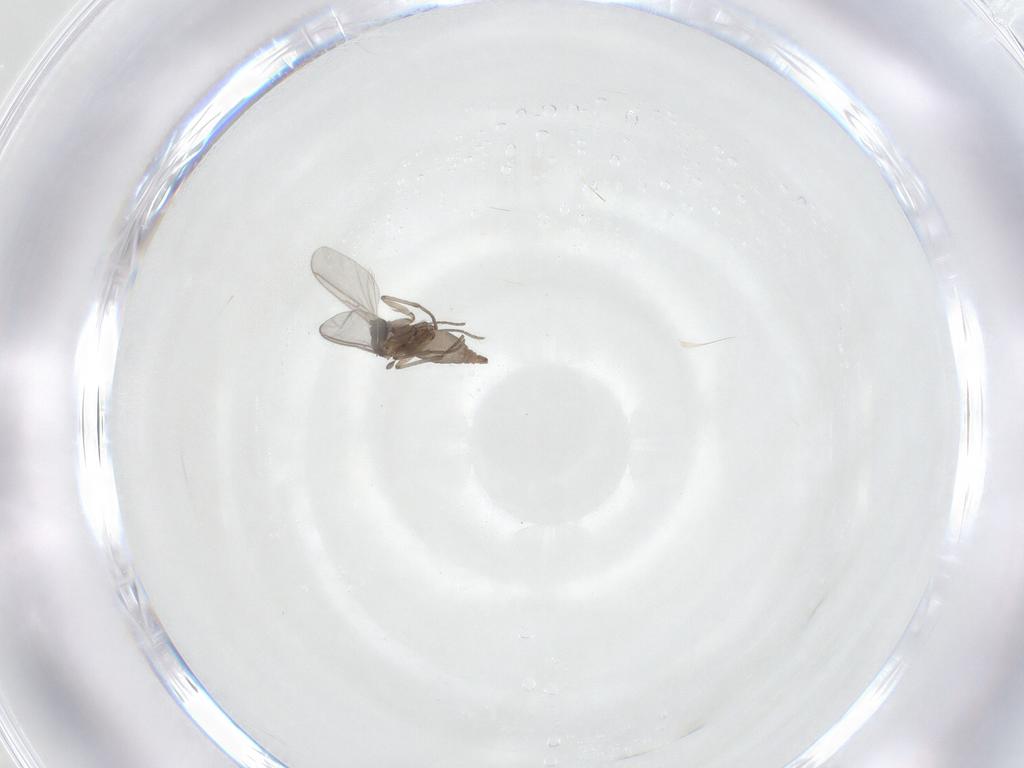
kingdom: Animalia
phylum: Arthropoda
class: Insecta
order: Diptera
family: Sciaridae
